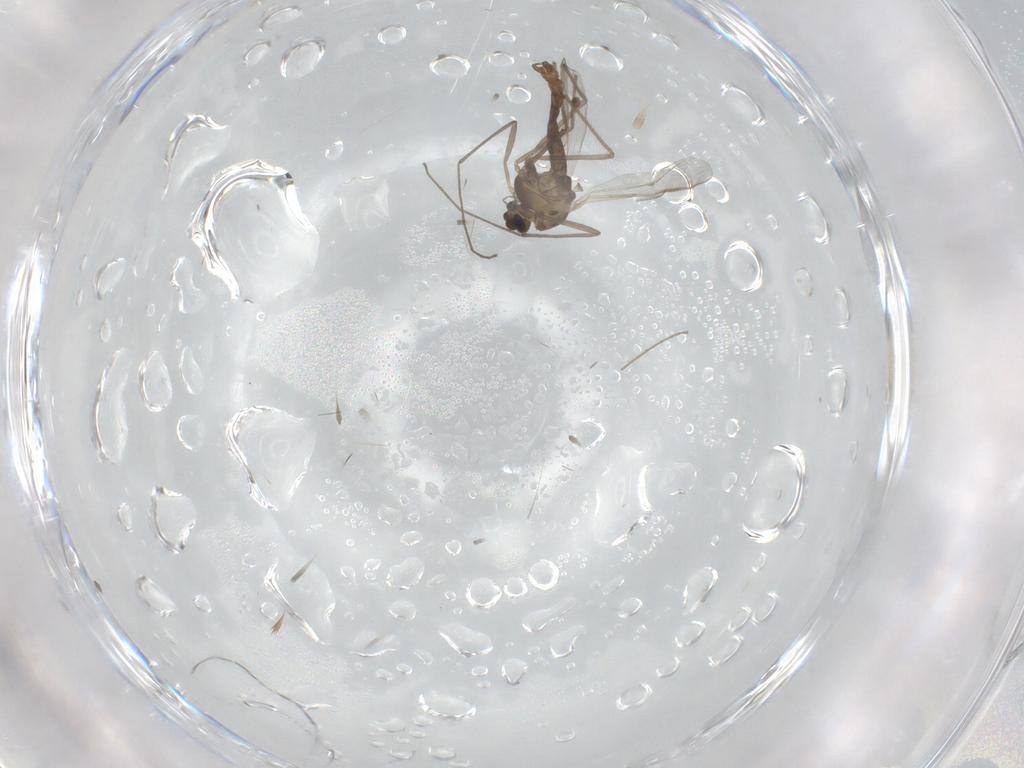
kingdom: Animalia
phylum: Arthropoda
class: Insecta
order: Diptera
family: Chironomidae
